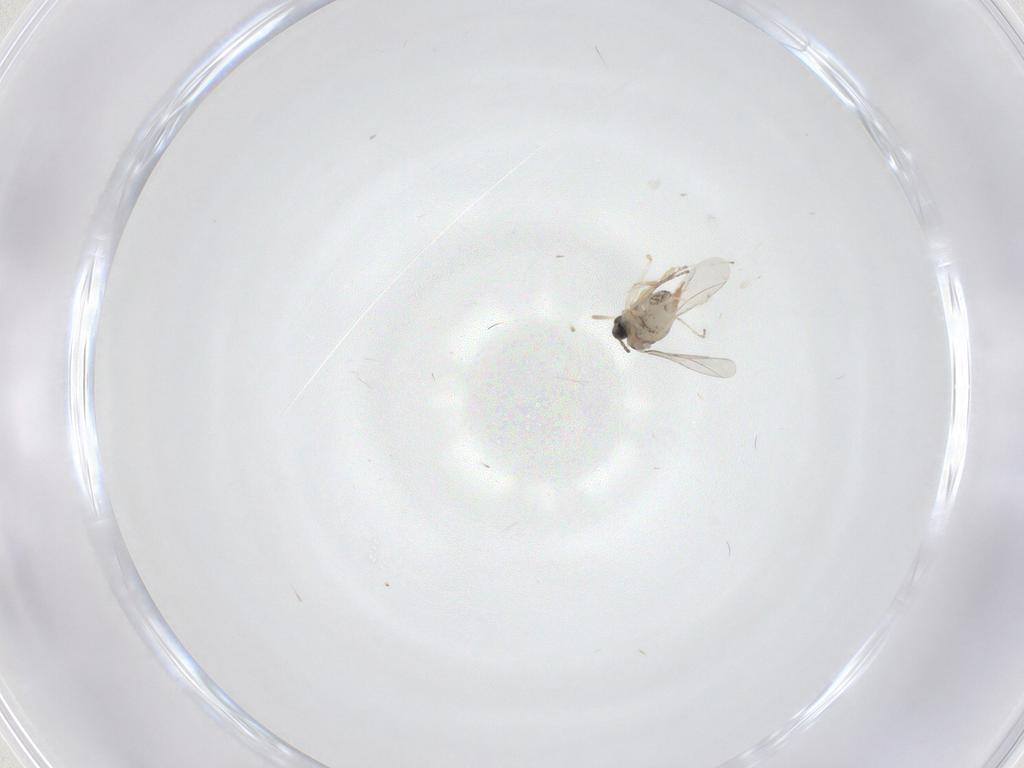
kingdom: Animalia
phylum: Arthropoda
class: Insecta
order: Diptera
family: Cecidomyiidae
